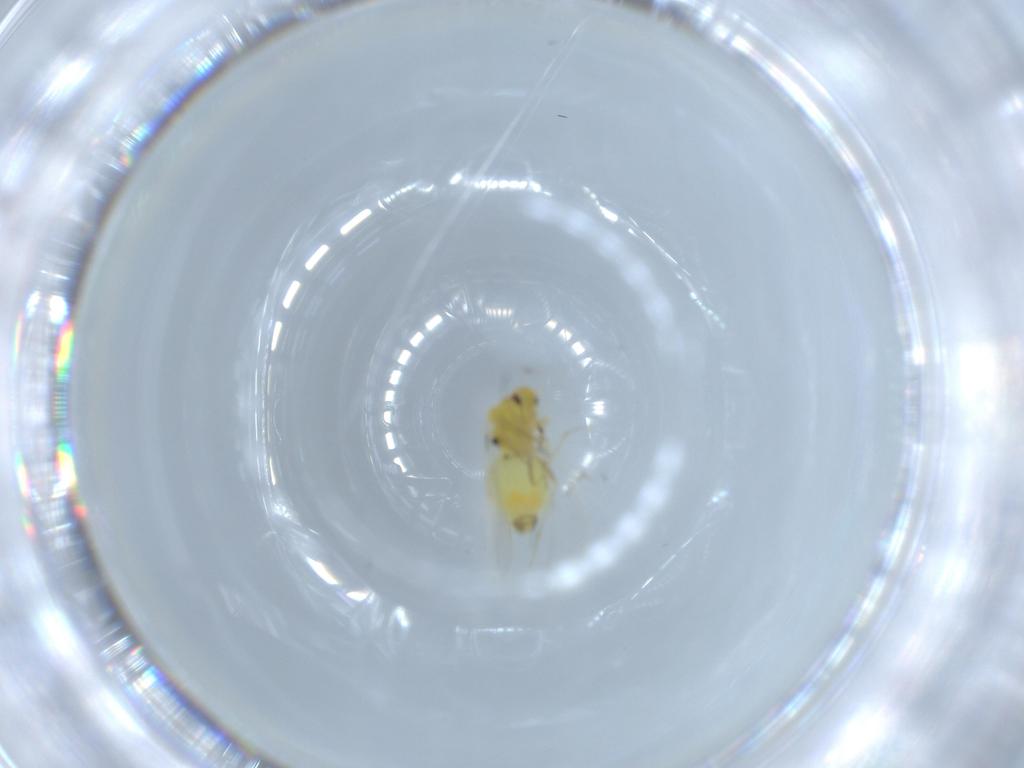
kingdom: Animalia
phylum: Arthropoda
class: Insecta
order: Hemiptera
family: Aleyrodidae
